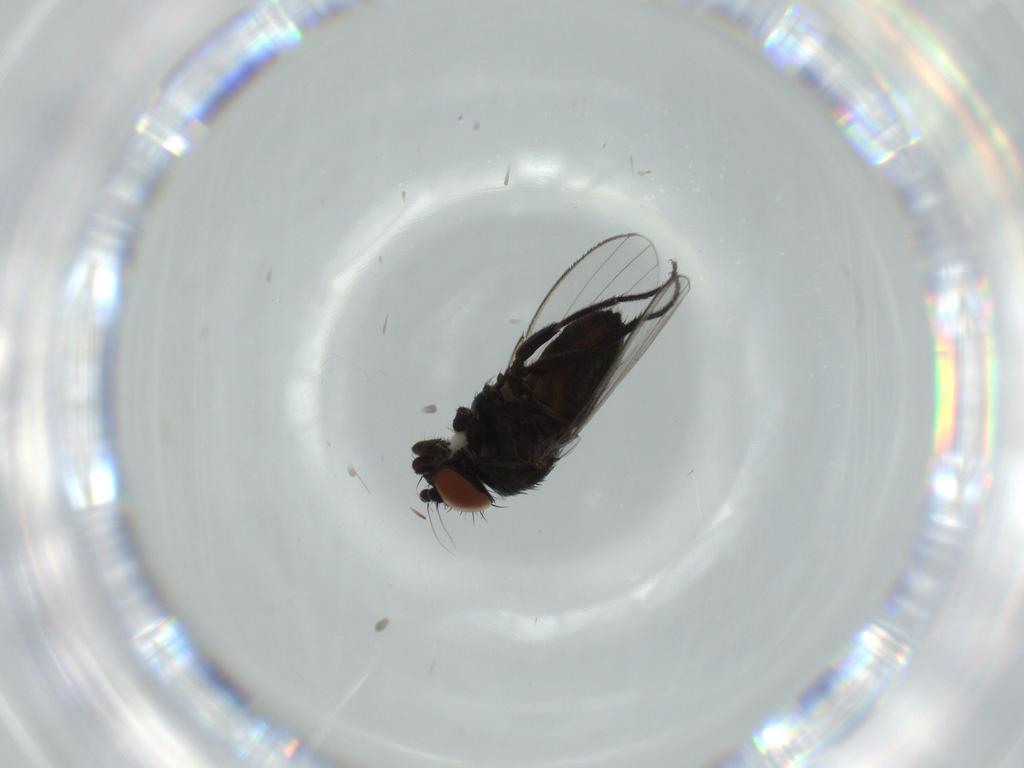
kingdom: Animalia
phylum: Arthropoda
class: Insecta
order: Diptera
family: Milichiidae
